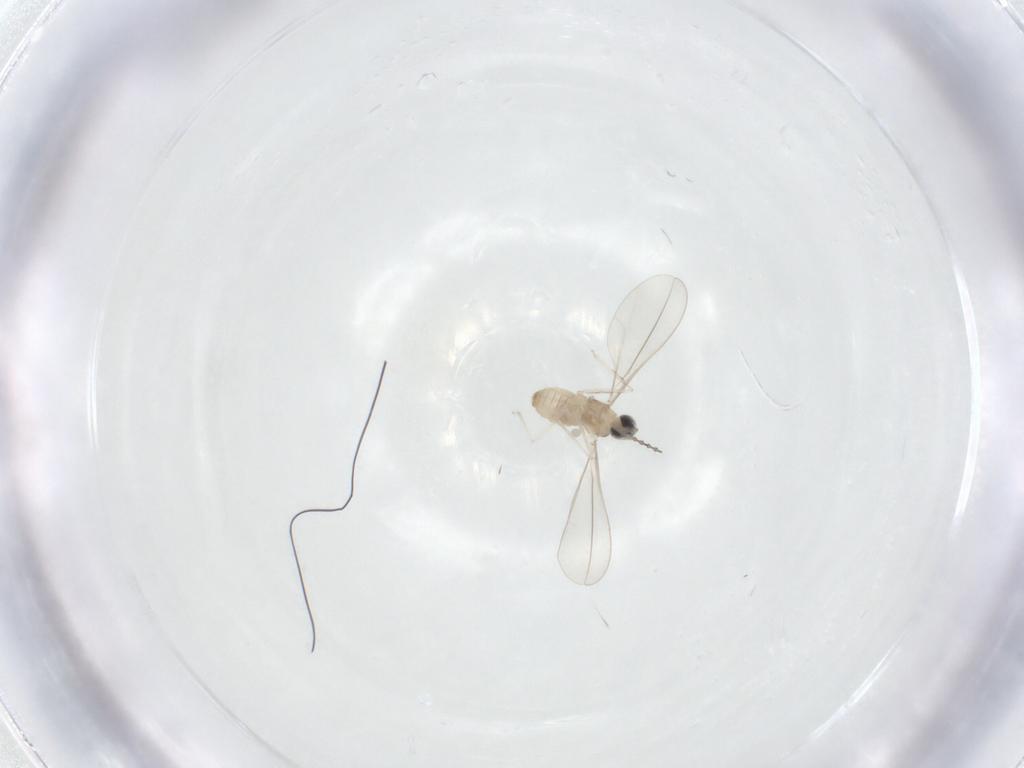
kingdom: Animalia
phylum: Arthropoda
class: Insecta
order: Diptera
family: Cecidomyiidae
